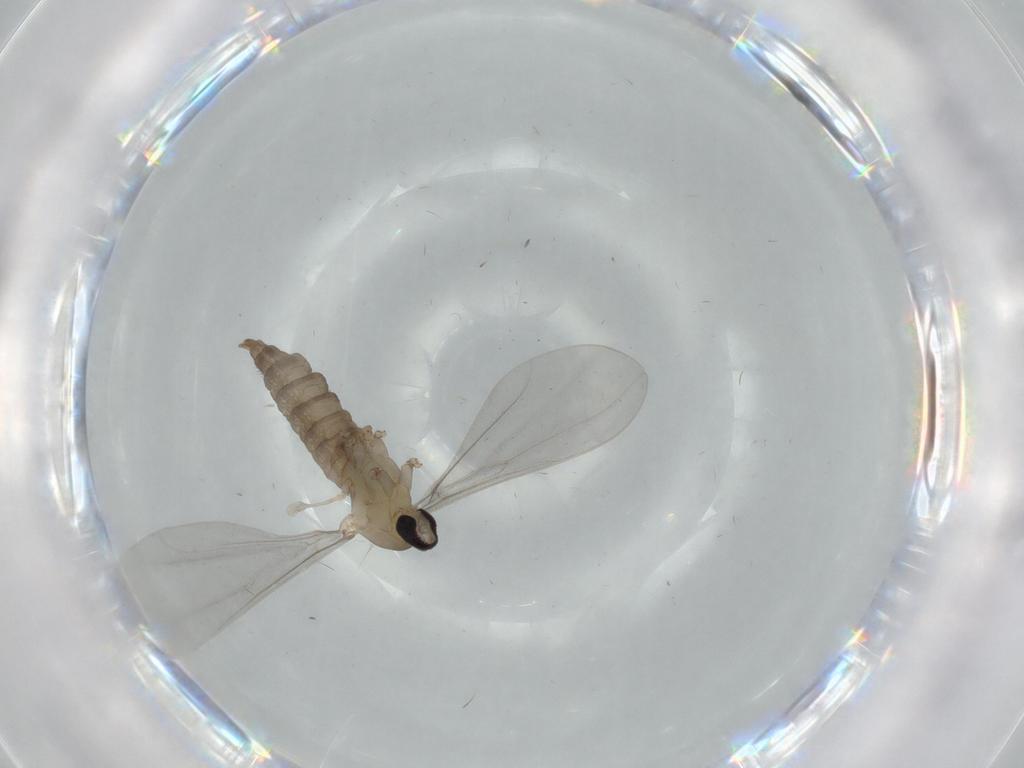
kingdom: Animalia
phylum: Arthropoda
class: Insecta
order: Diptera
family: Cecidomyiidae
